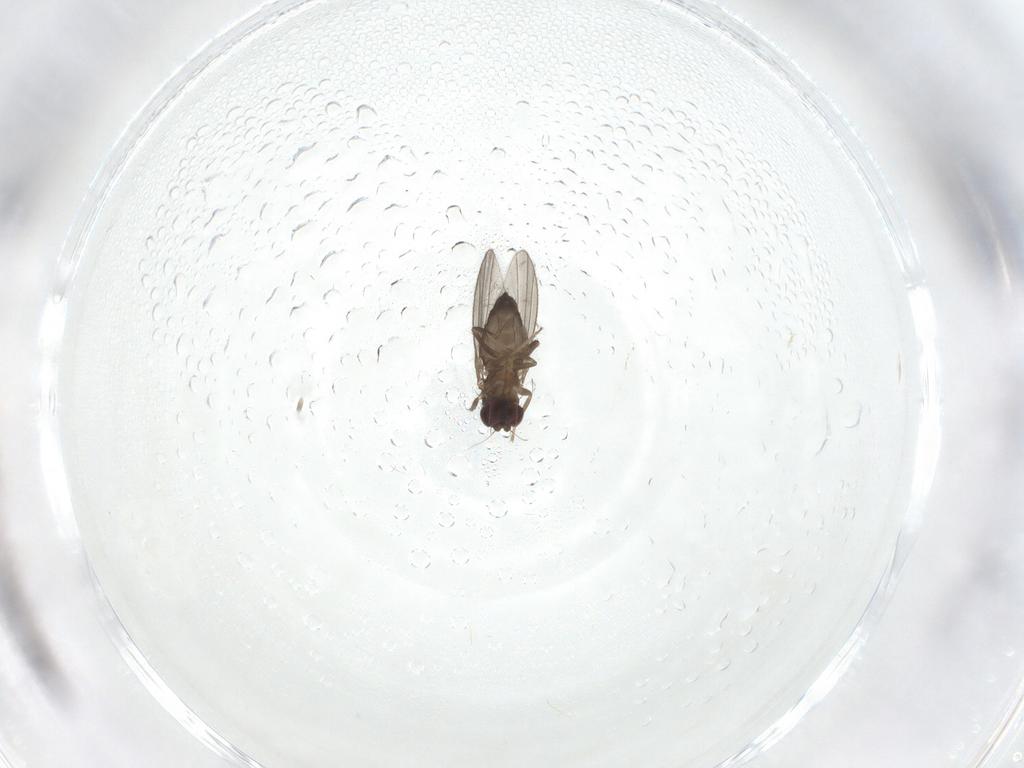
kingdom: Animalia
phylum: Arthropoda
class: Insecta
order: Diptera
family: Dolichopodidae
